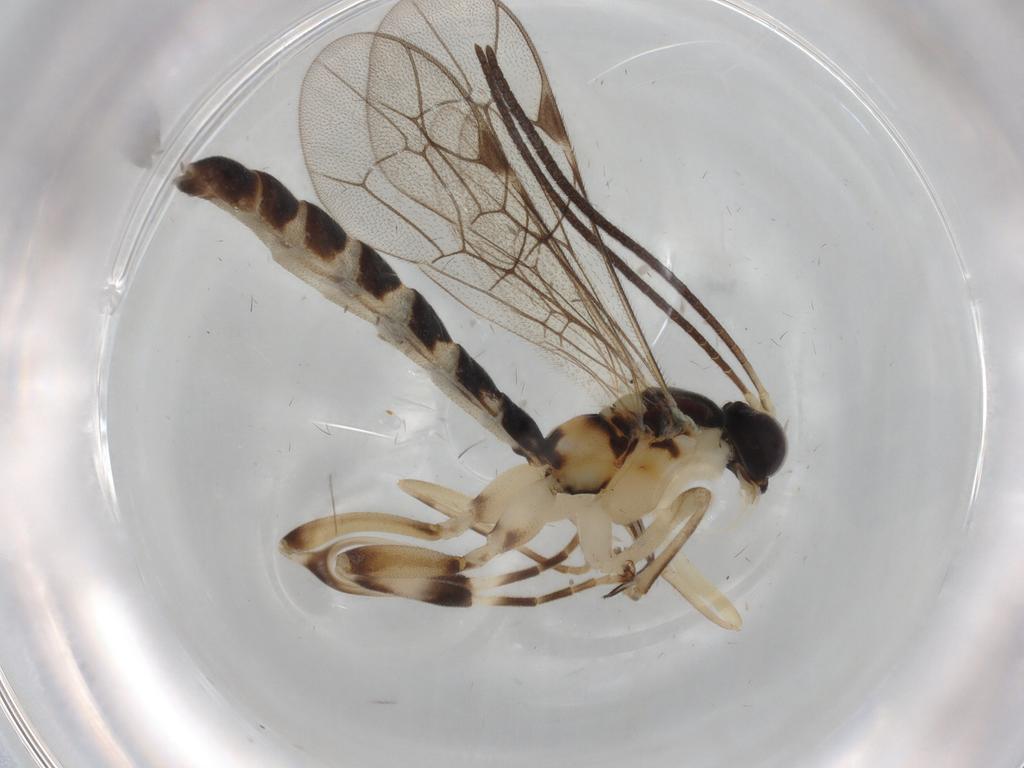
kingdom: Animalia
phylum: Arthropoda
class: Insecta
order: Hymenoptera
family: Ichneumonidae
